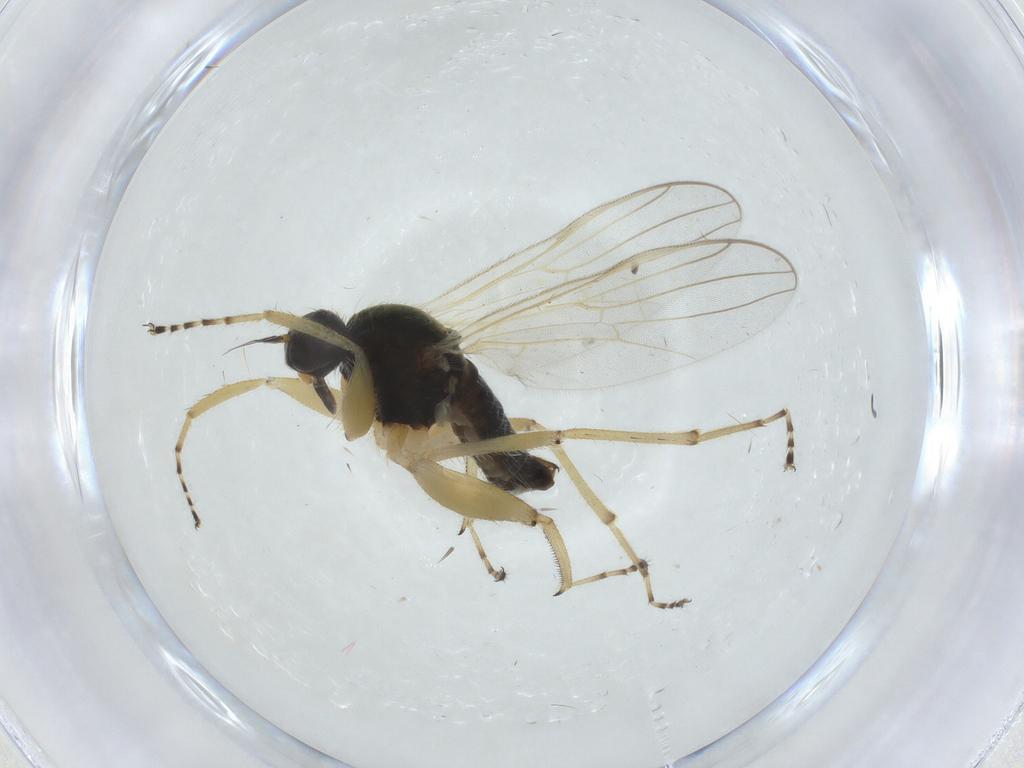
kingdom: Animalia
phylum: Arthropoda
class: Insecta
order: Diptera
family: Hybotidae
